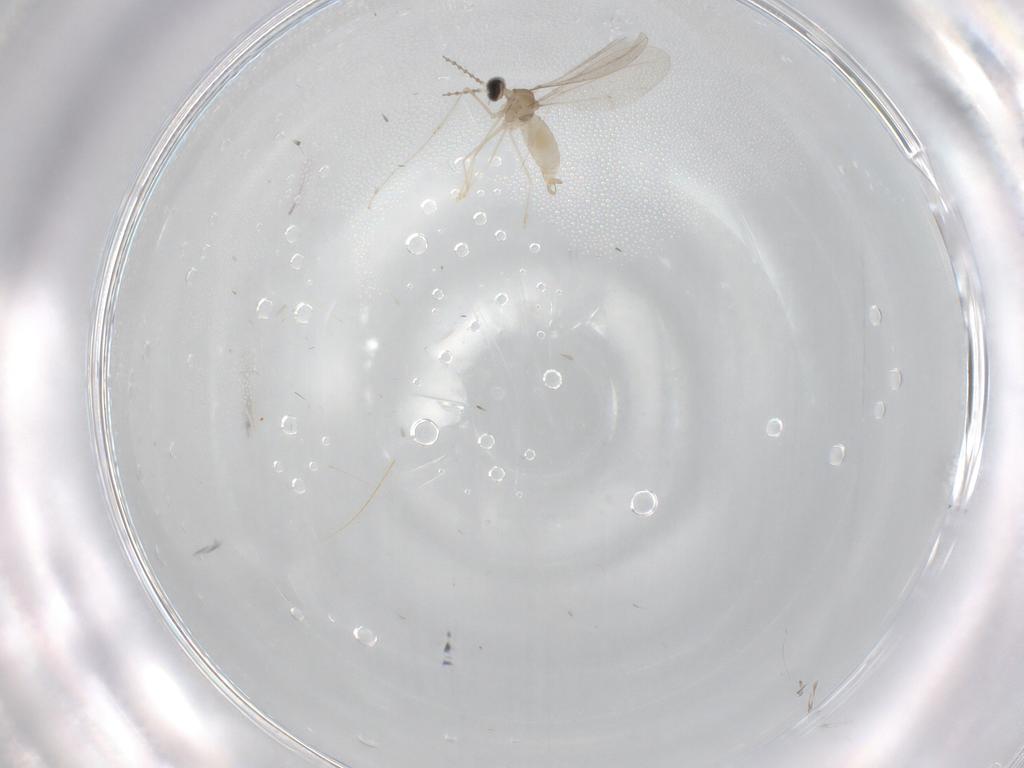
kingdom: Animalia
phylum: Arthropoda
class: Insecta
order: Diptera
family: Cecidomyiidae
